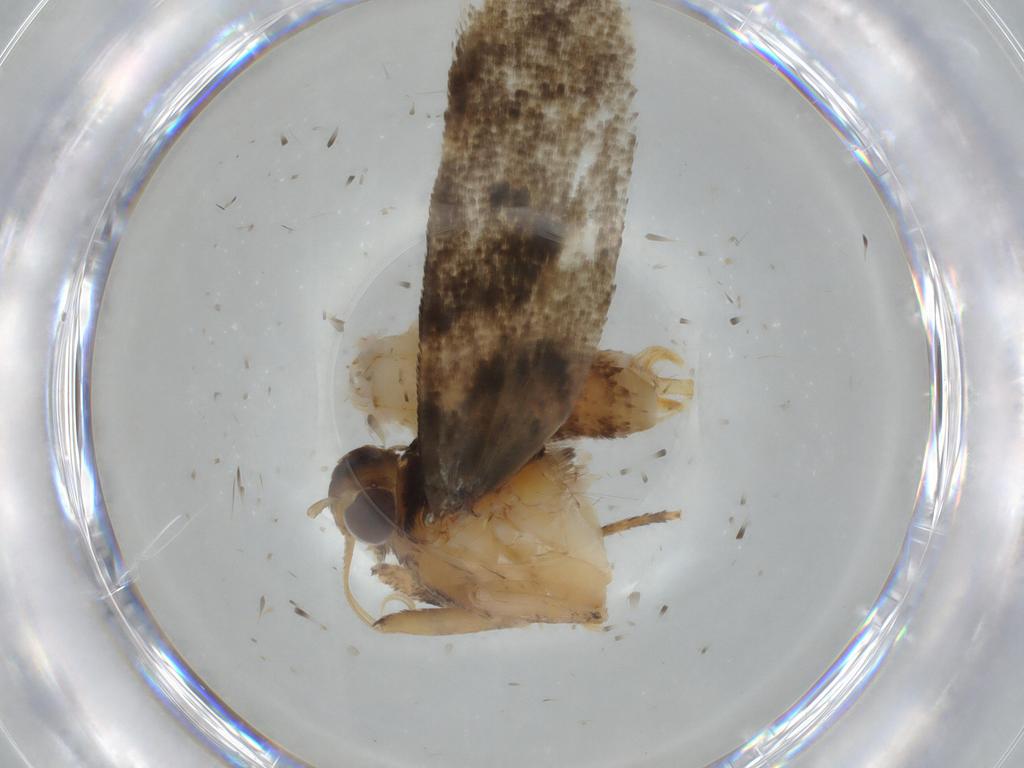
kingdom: Animalia
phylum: Arthropoda
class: Insecta
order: Lepidoptera
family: Gelechiidae
